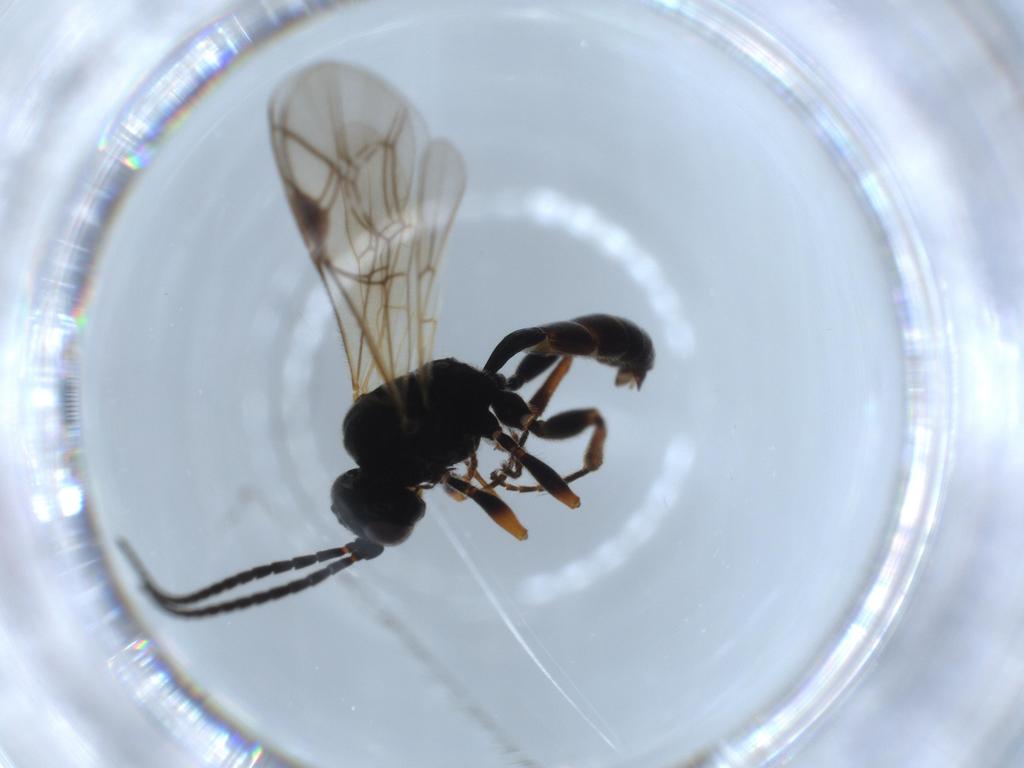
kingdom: Animalia
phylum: Arthropoda
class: Insecta
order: Hymenoptera
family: Ichneumonidae
